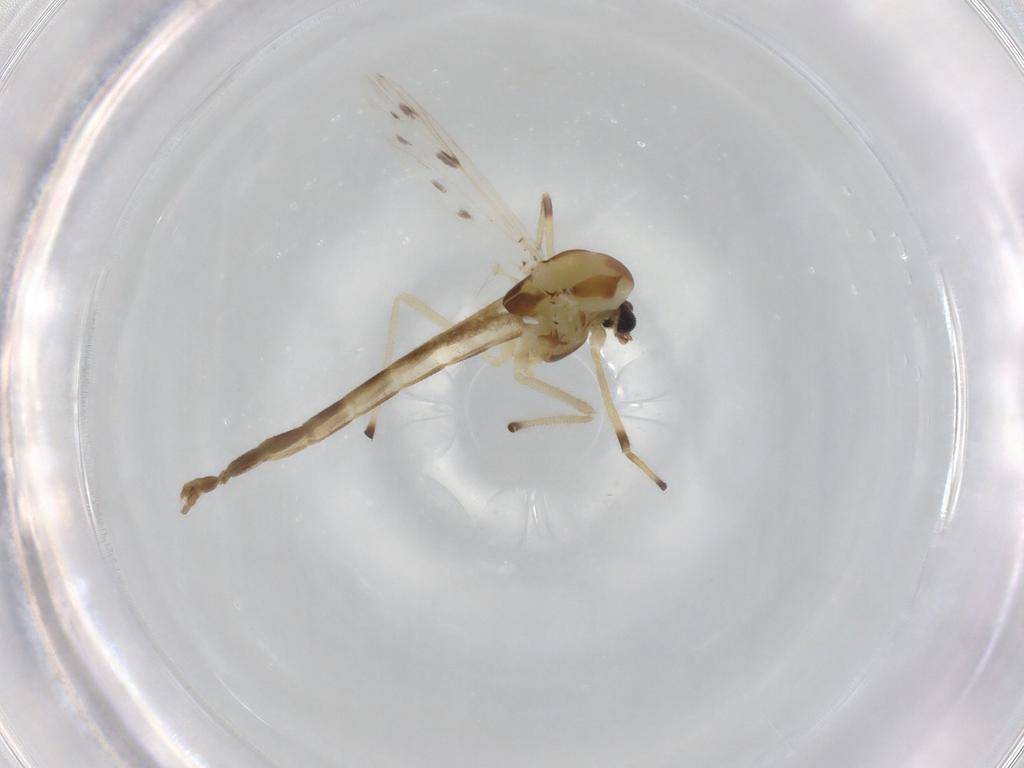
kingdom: Animalia
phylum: Arthropoda
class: Insecta
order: Diptera
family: Chironomidae
